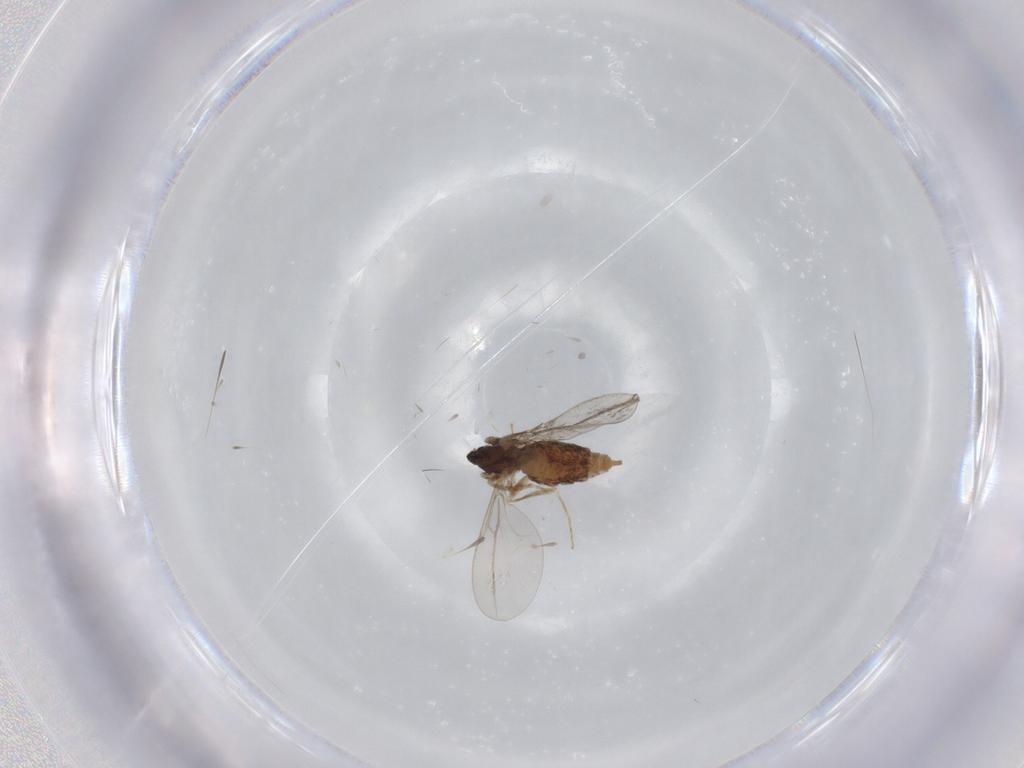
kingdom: Animalia
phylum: Arthropoda
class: Insecta
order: Diptera
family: Cecidomyiidae
